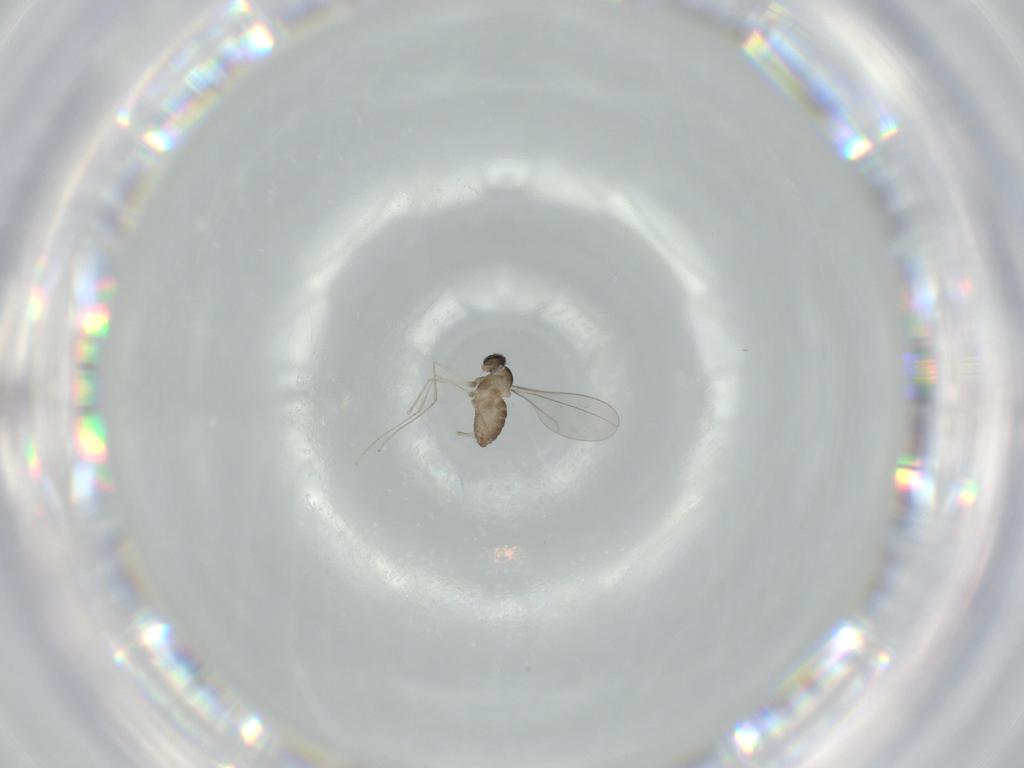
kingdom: Animalia
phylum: Arthropoda
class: Insecta
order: Diptera
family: Cecidomyiidae
